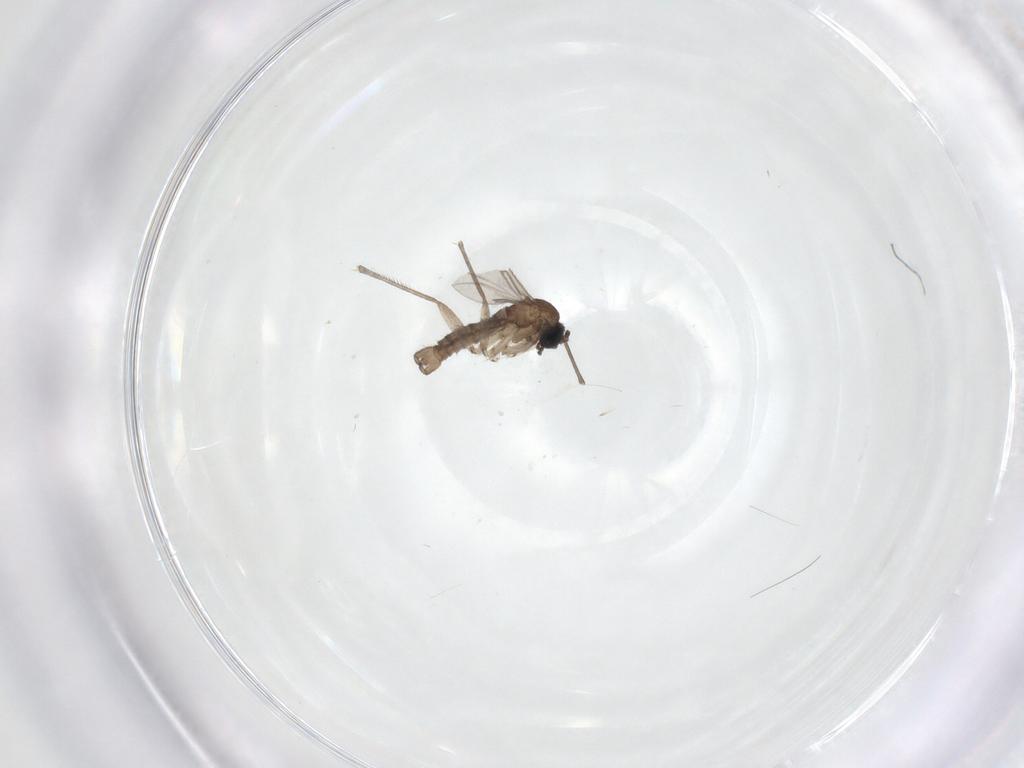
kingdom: Animalia
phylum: Arthropoda
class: Insecta
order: Diptera
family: Sciaridae
